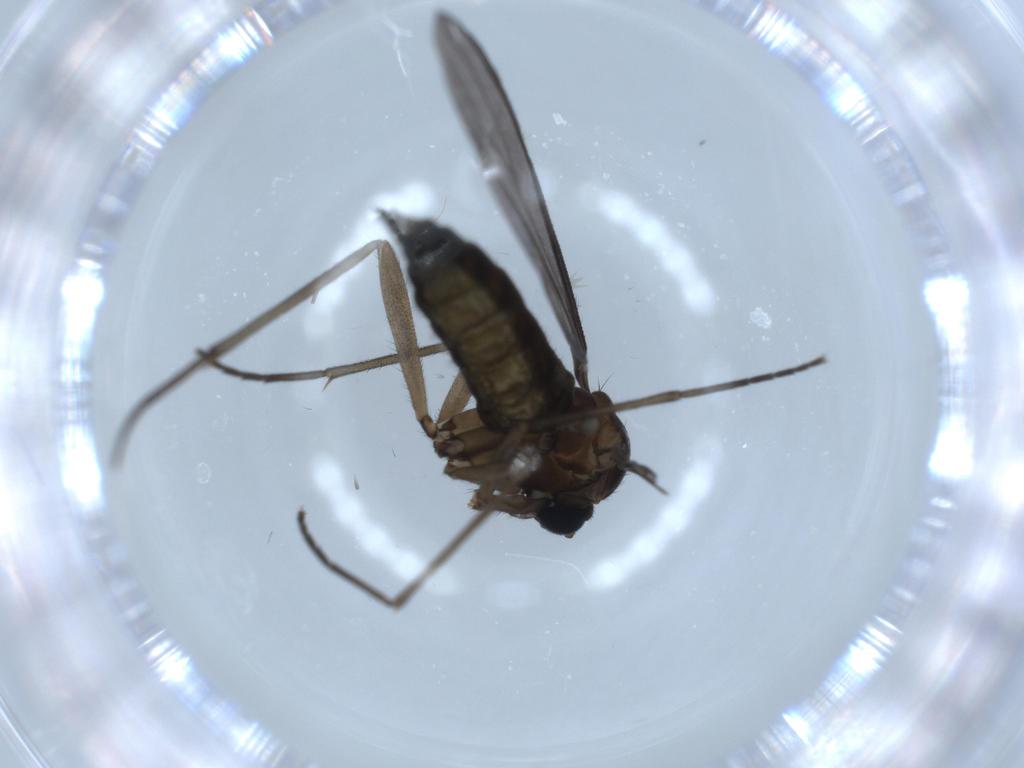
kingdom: Animalia
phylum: Arthropoda
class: Insecta
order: Diptera
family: Sciaridae
